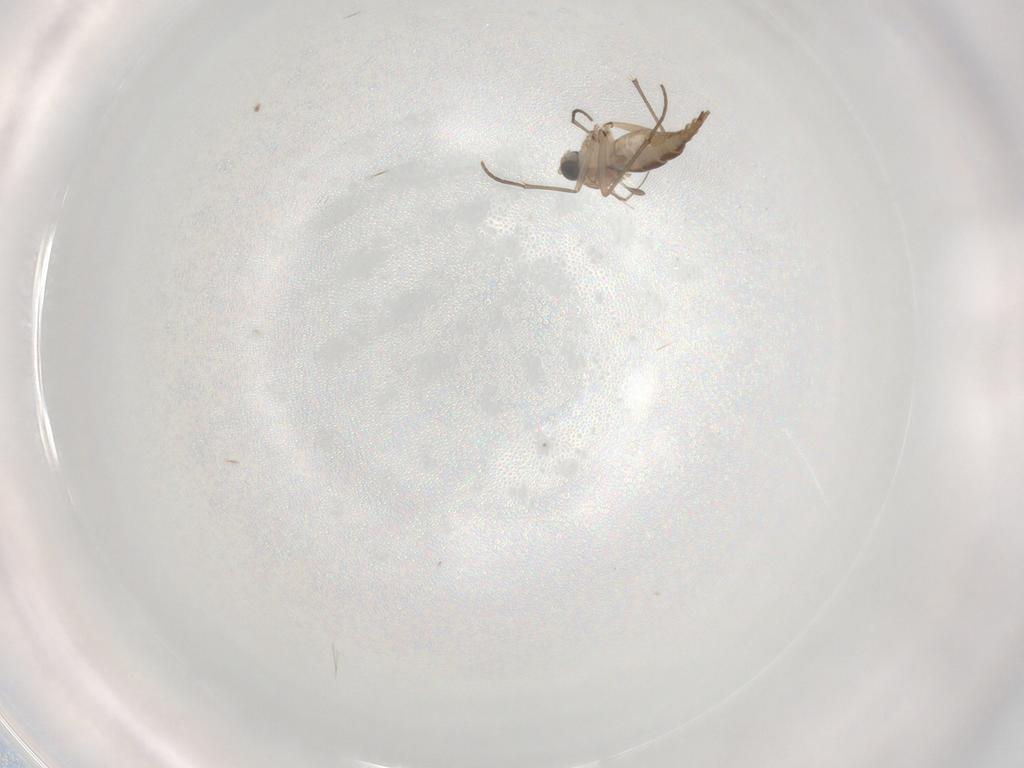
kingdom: Animalia
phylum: Arthropoda
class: Insecta
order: Diptera
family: Sciaridae
